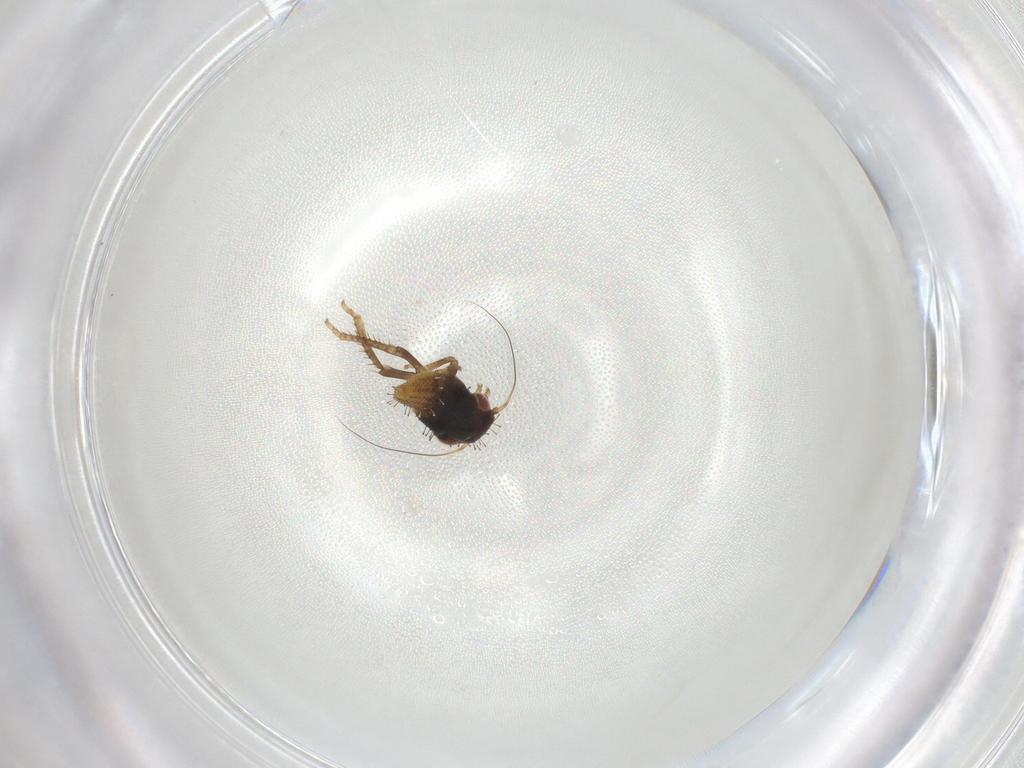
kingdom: Animalia
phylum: Arthropoda
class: Insecta
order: Hemiptera
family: Cicadellidae
